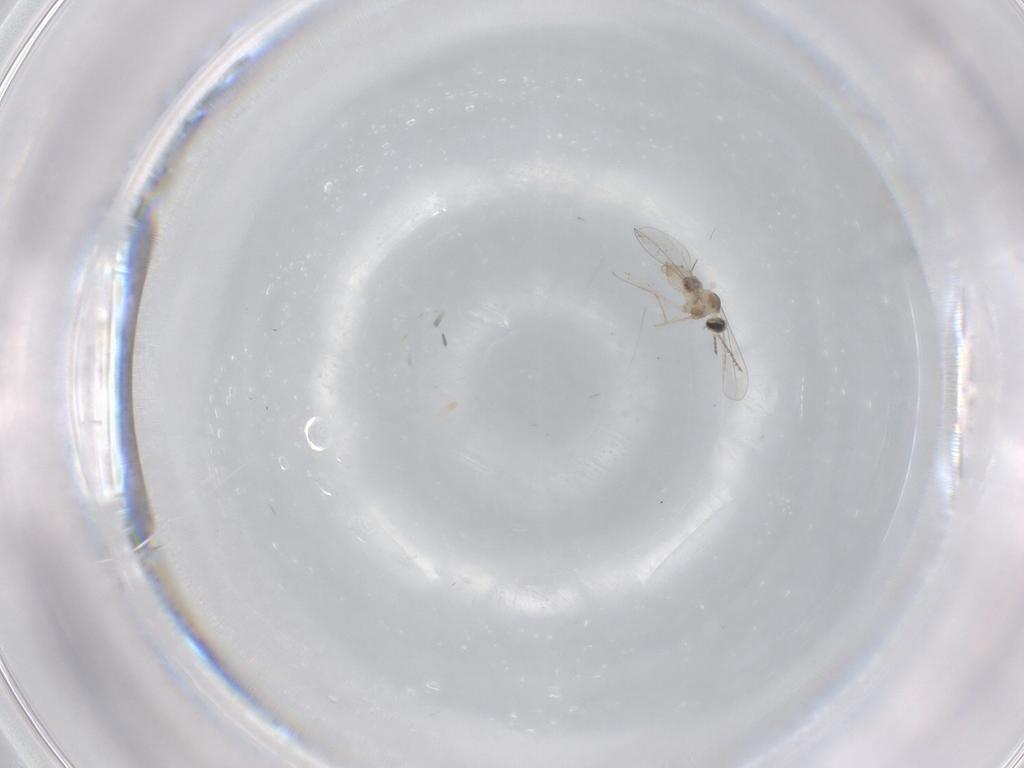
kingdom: Animalia
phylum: Arthropoda
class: Insecta
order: Diptera
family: Cecidomyiidae
